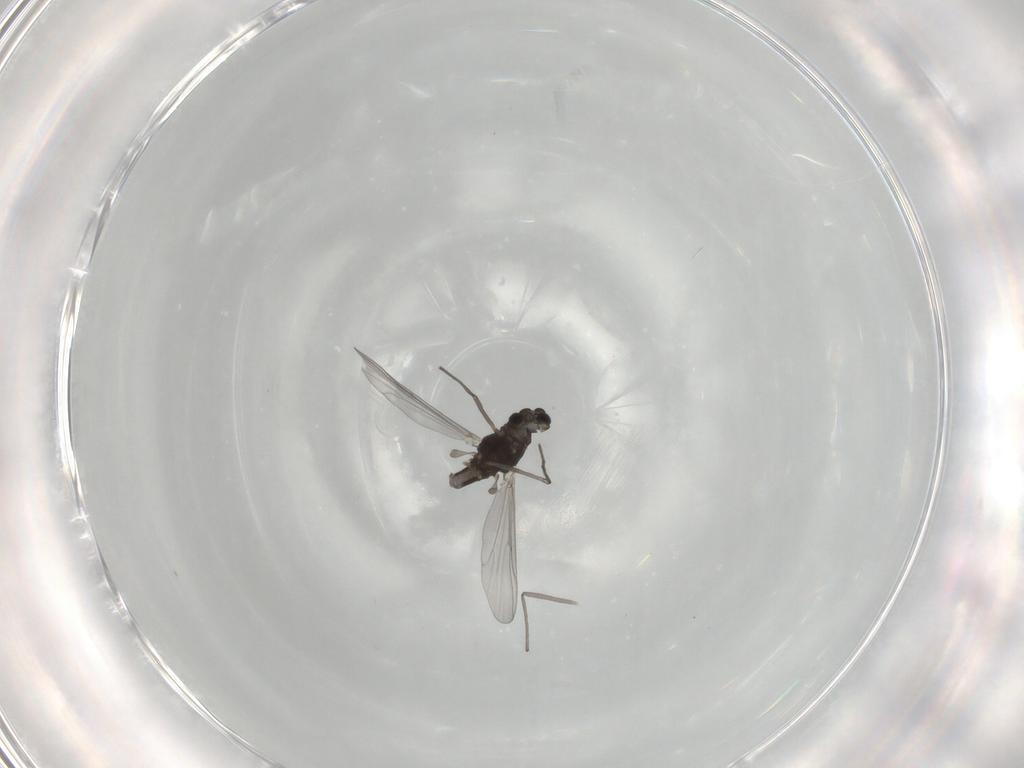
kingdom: Animalia
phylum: Arthropoda
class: Insecta
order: Diptera
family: Chironomidae
